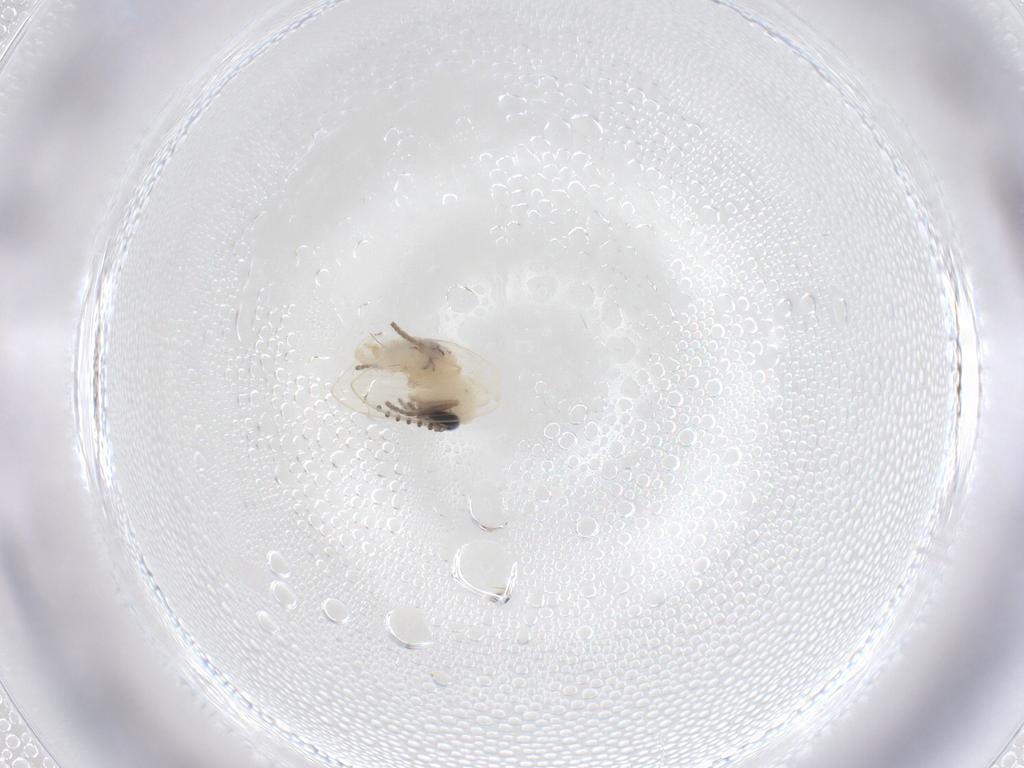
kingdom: Animalia
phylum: Arthropoda
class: Insecta
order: Diptera
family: Psychodidae
